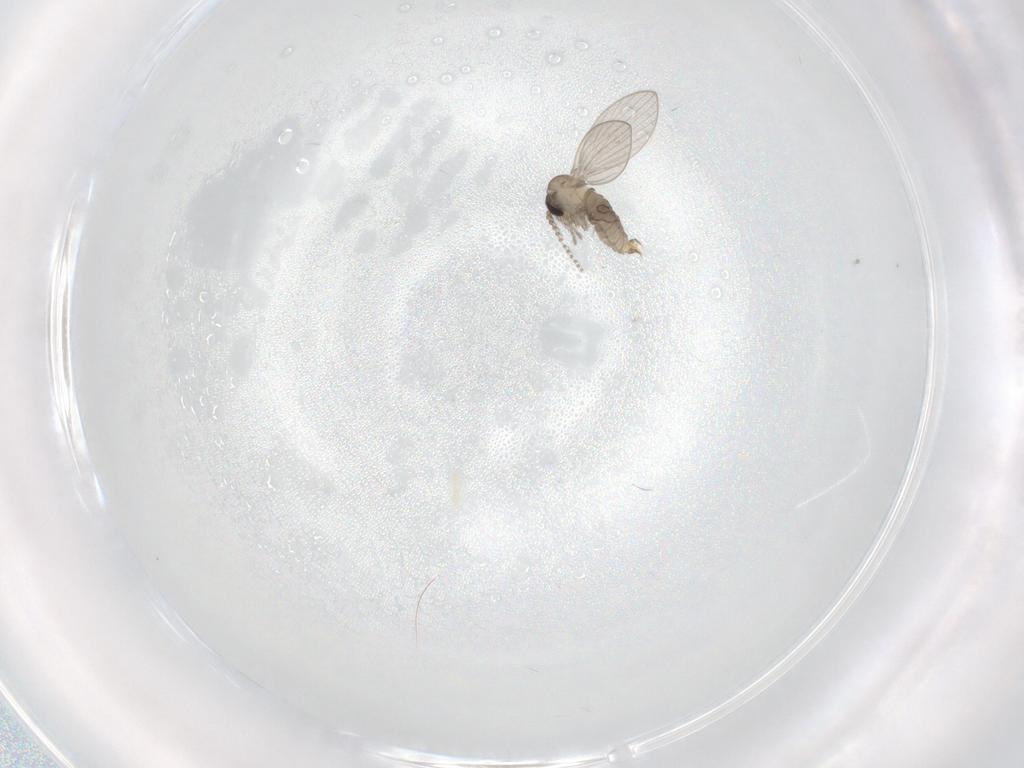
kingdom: Animalia
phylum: Arthropoda
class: Insecta
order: Diptera
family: Psychodidae
